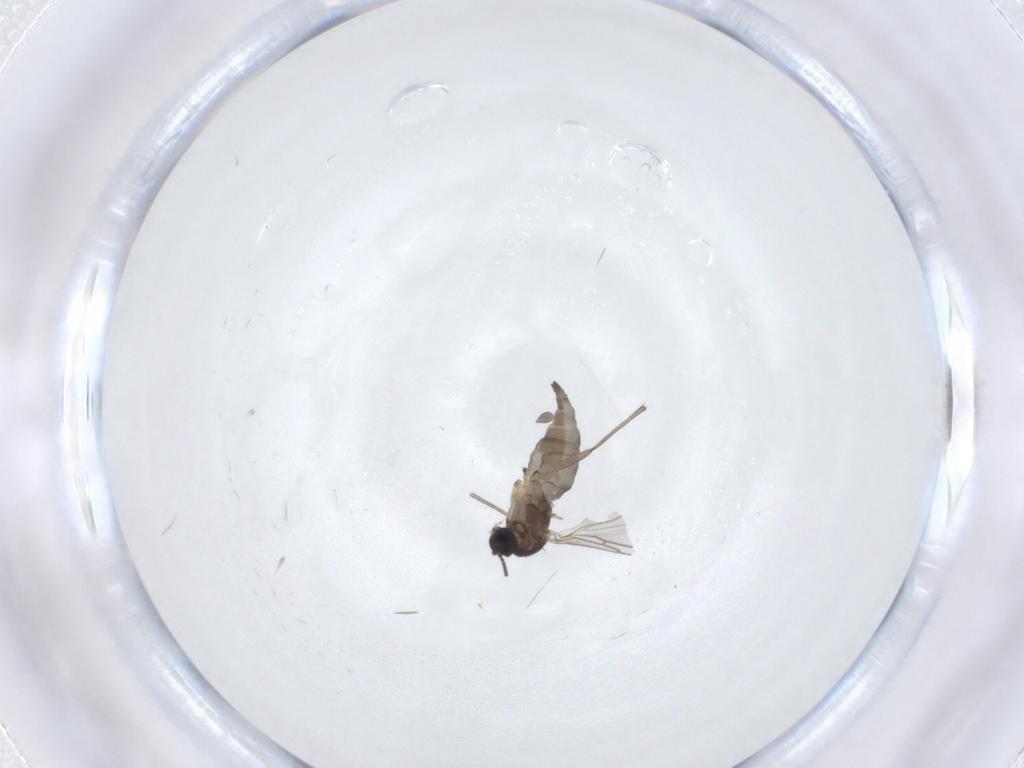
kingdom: Animalia
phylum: Arthropoda
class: Insecta
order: Diptera
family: Sciaridae
